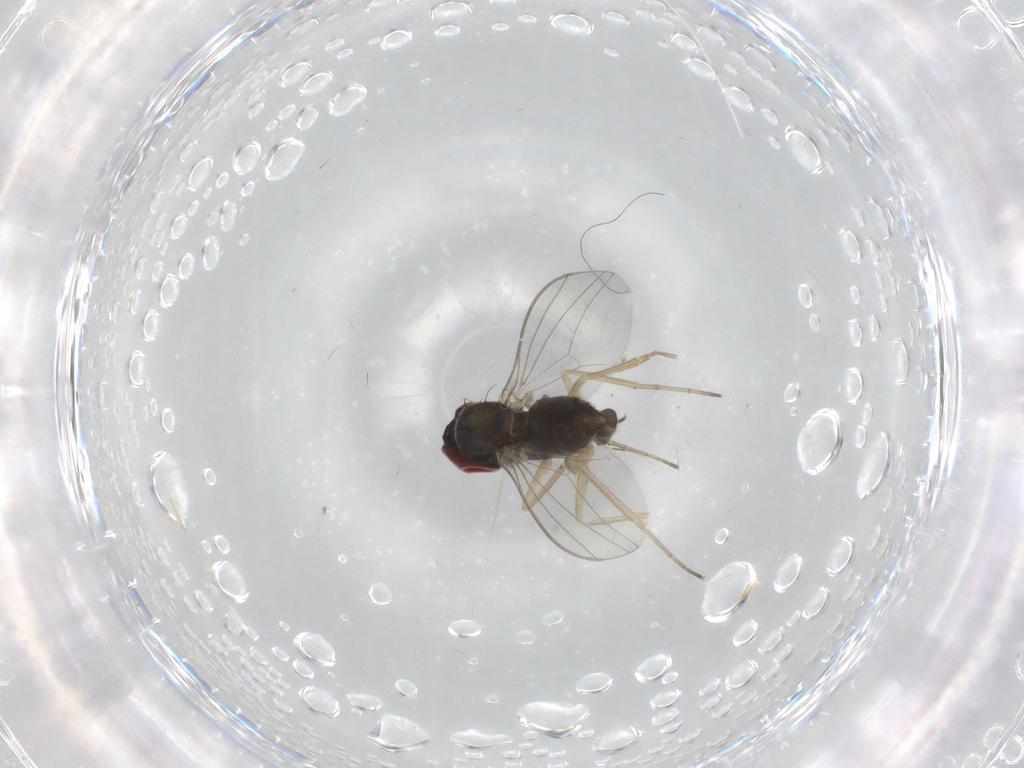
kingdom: Animalia
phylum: Arthropoda
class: Insecta
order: Diptera
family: Dolichopodidae
